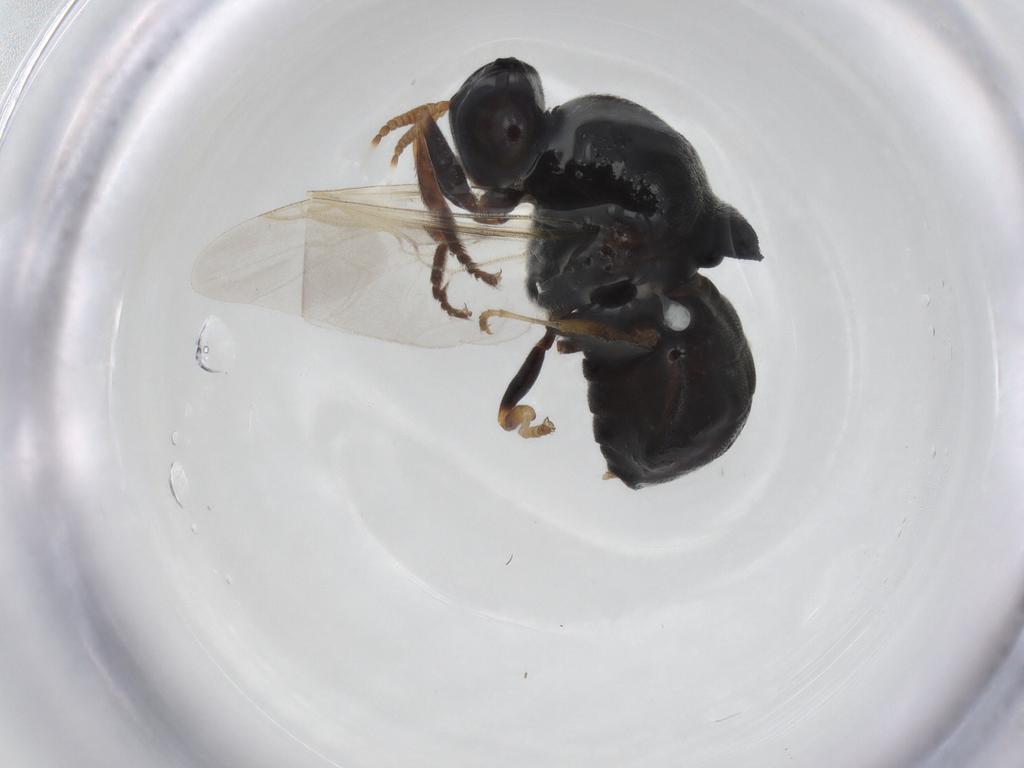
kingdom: Animalia
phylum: Arthropoda
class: Insecta
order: Diptera
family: Stratiomyidae
